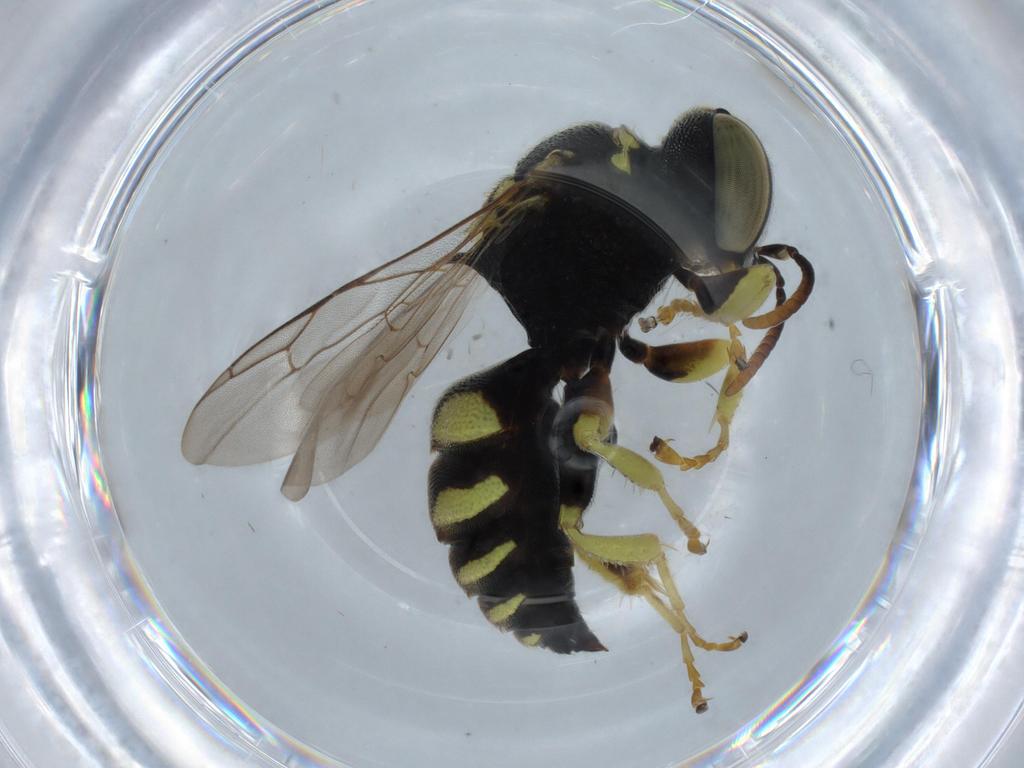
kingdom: Animalia
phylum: Arthropoda
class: Insecta
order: Hymenoptera
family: Crabronidae
